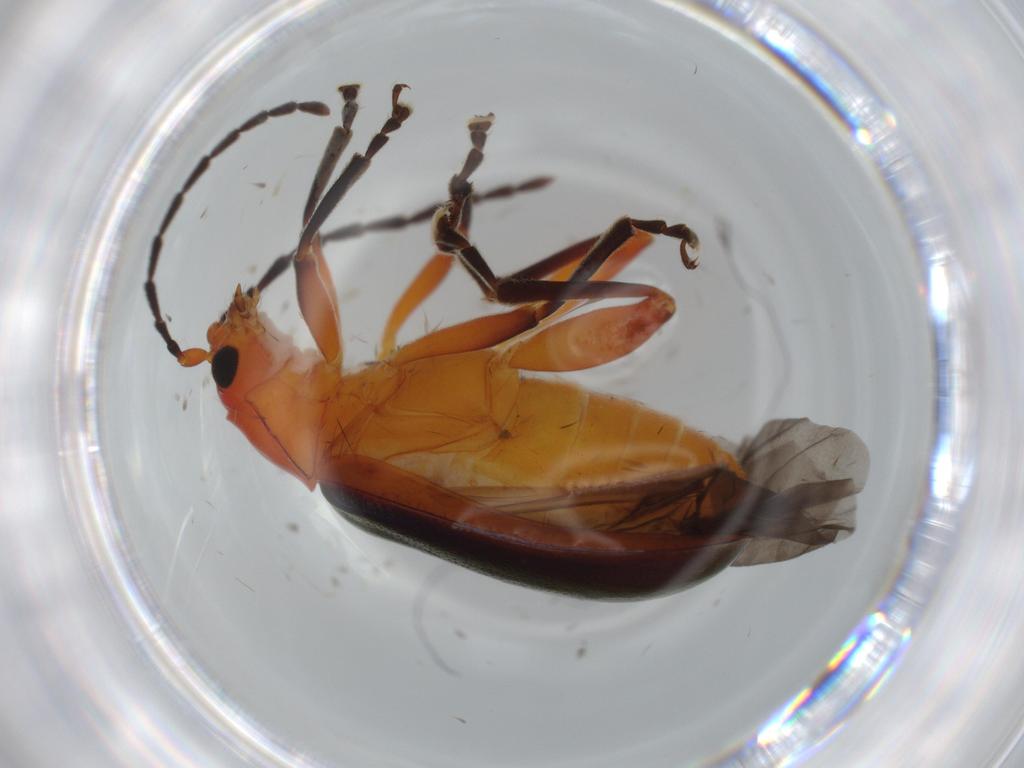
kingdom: Animalia
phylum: Arthropoda
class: Insecta
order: Coleoptera
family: Chrysomelidae
